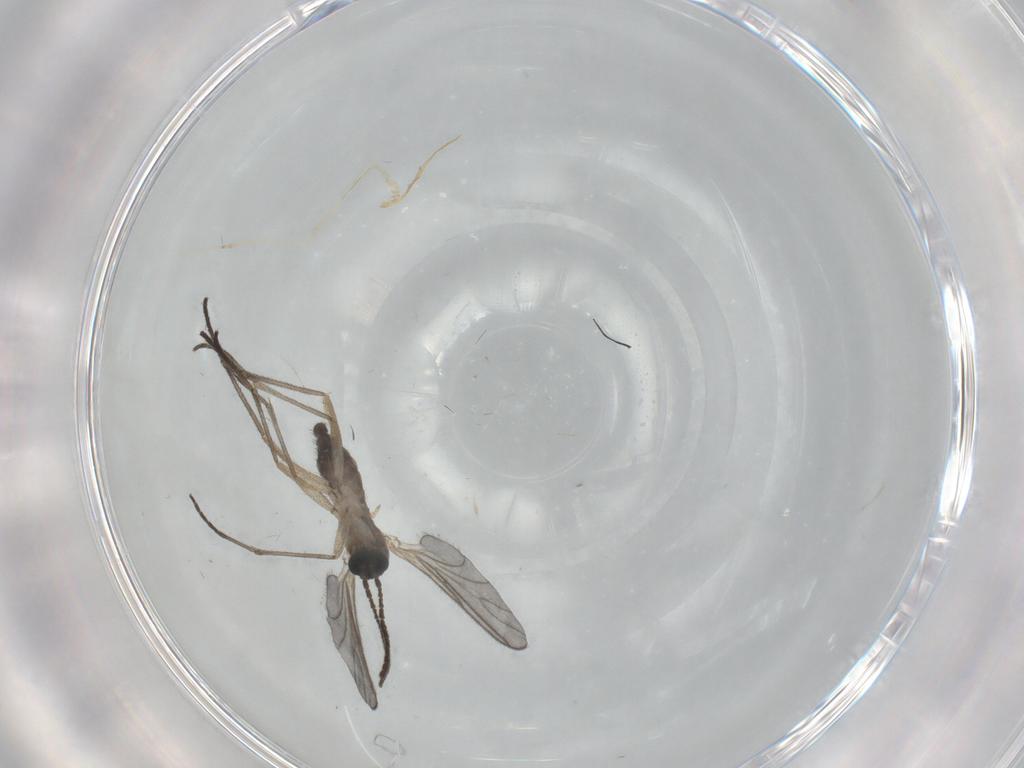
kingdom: Animalia
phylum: Arthropoda
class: Insecta
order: Diptera
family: Sciaridae
